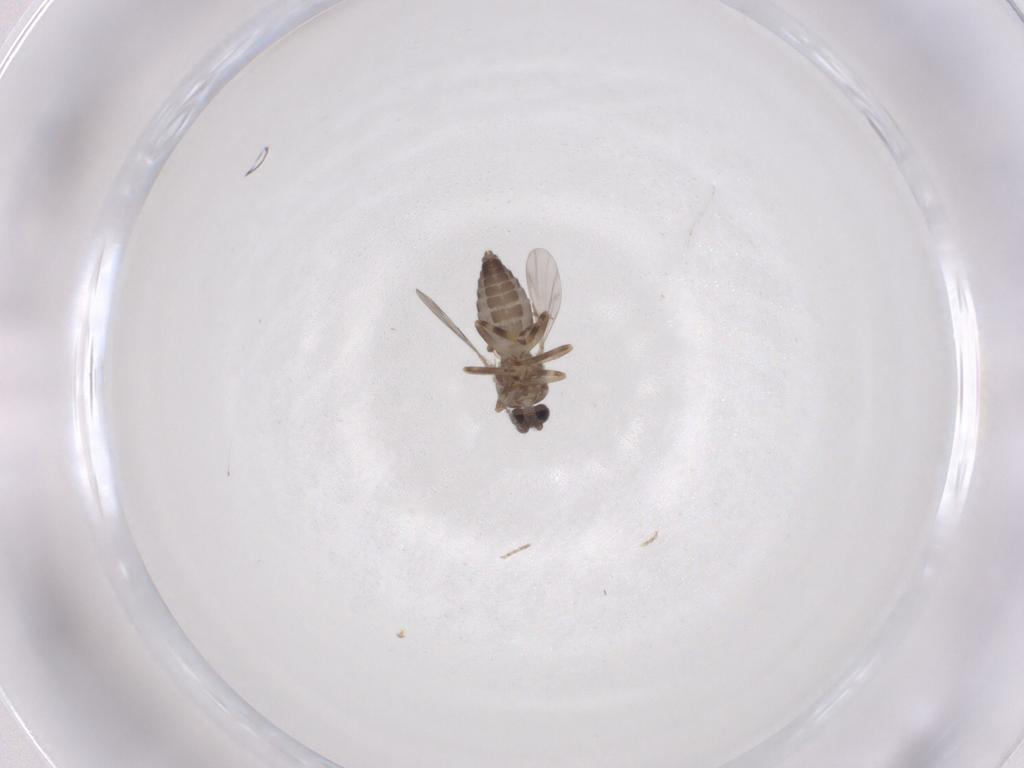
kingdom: Animalia
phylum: Arthropoda
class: Insecta
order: Diptera
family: Ceratopogonidae
